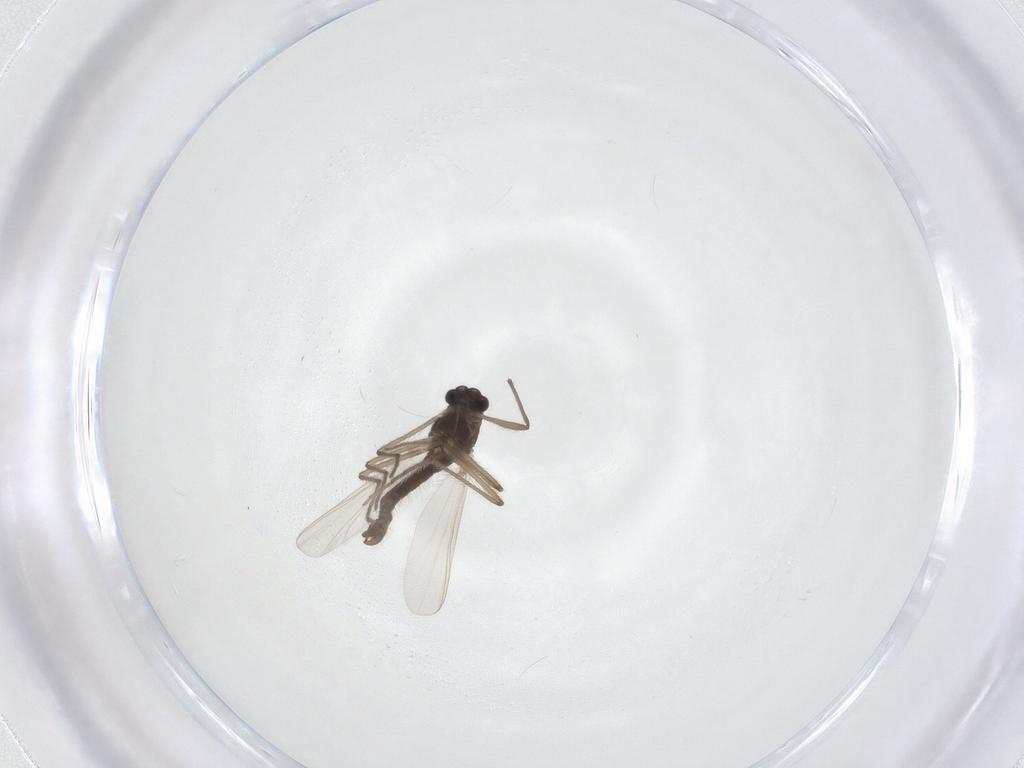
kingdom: Animalia
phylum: Arthropoda
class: Insecta
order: Diptera
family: Chironomidae
